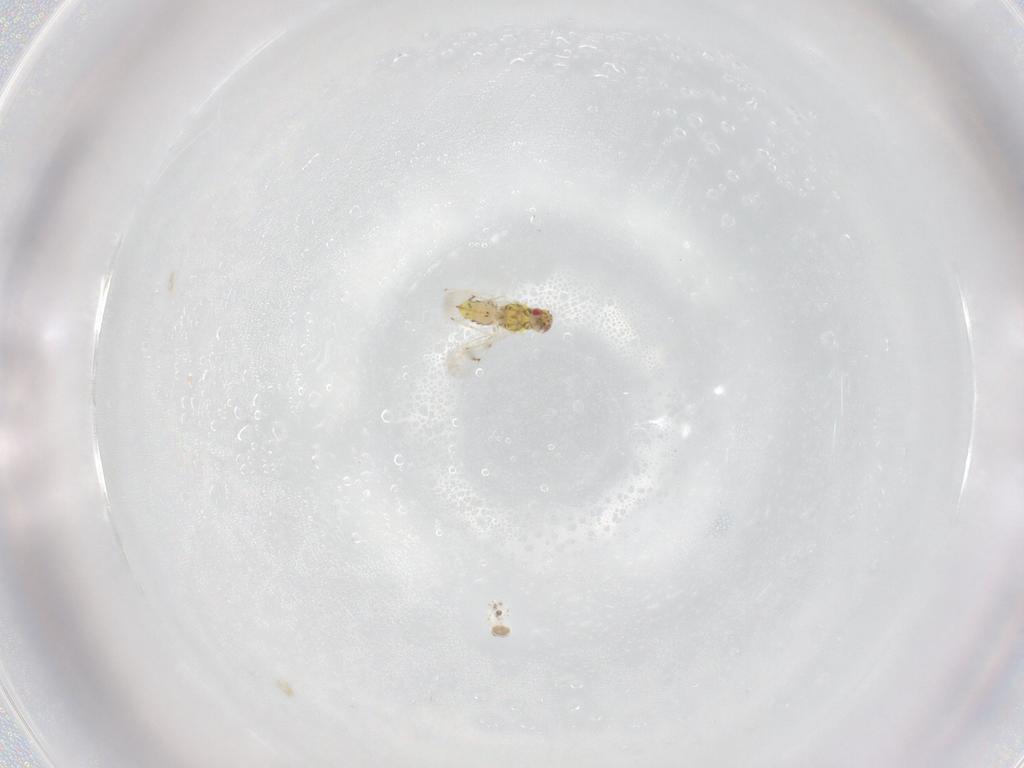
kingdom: Animalia
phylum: Arthropoda
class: Insecta
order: Hymenoptera
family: Eulophidae
